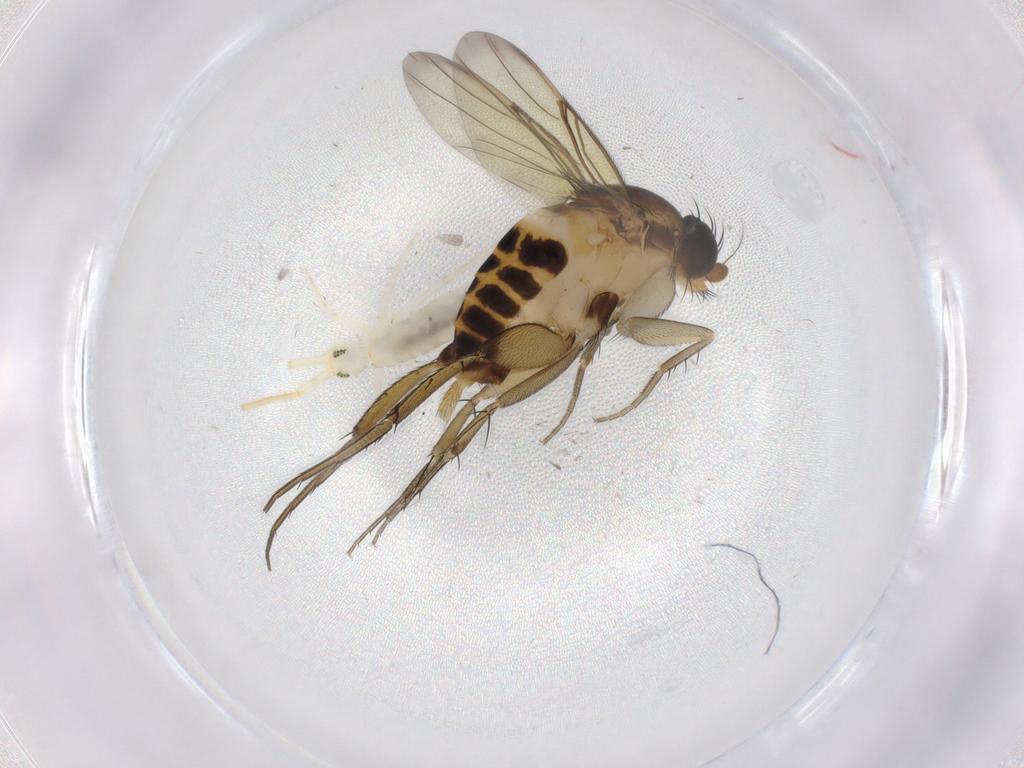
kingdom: Animalia
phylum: Arthropoda
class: Insecta
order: Diptera
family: Phoridae
